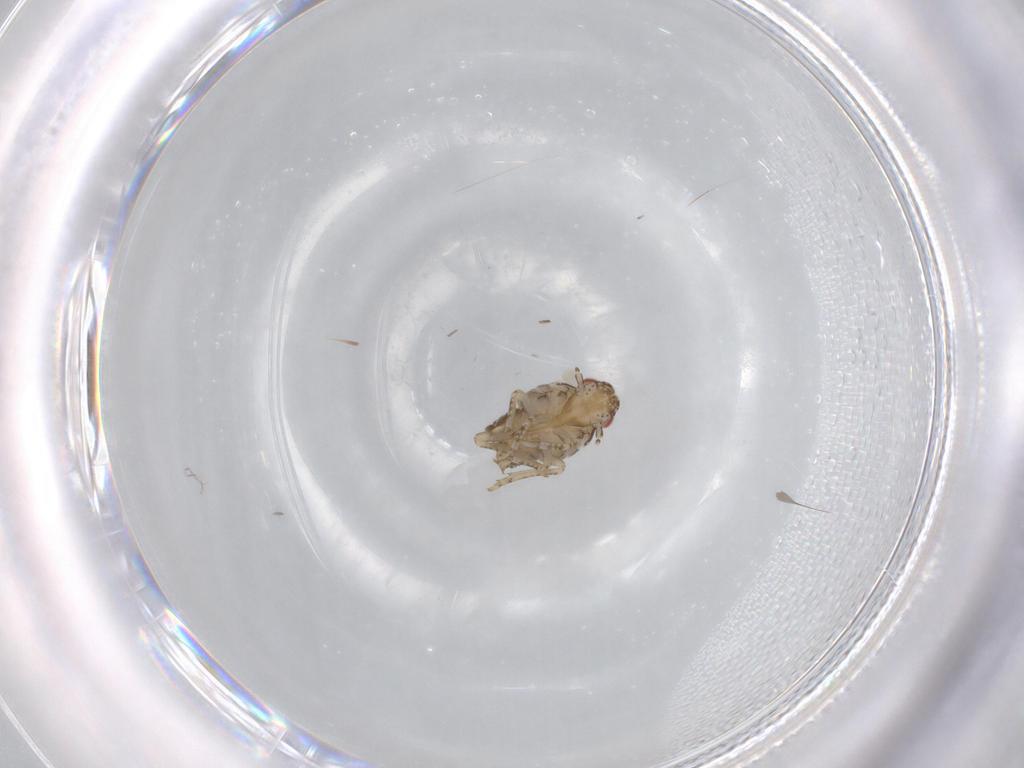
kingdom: Animalia
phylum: Arthropoda
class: Insecta
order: Hemiptera
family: Flatidae
